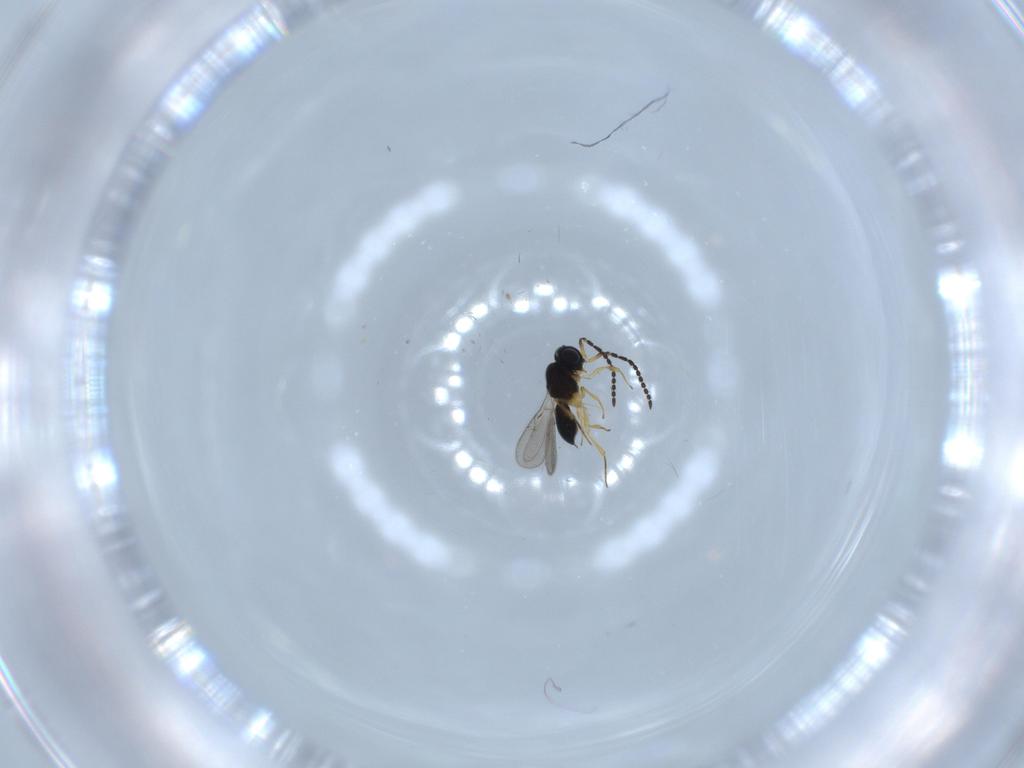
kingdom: Animalia
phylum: Arthropoda
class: Insecta
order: Hymenoptera
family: Scelionidae
